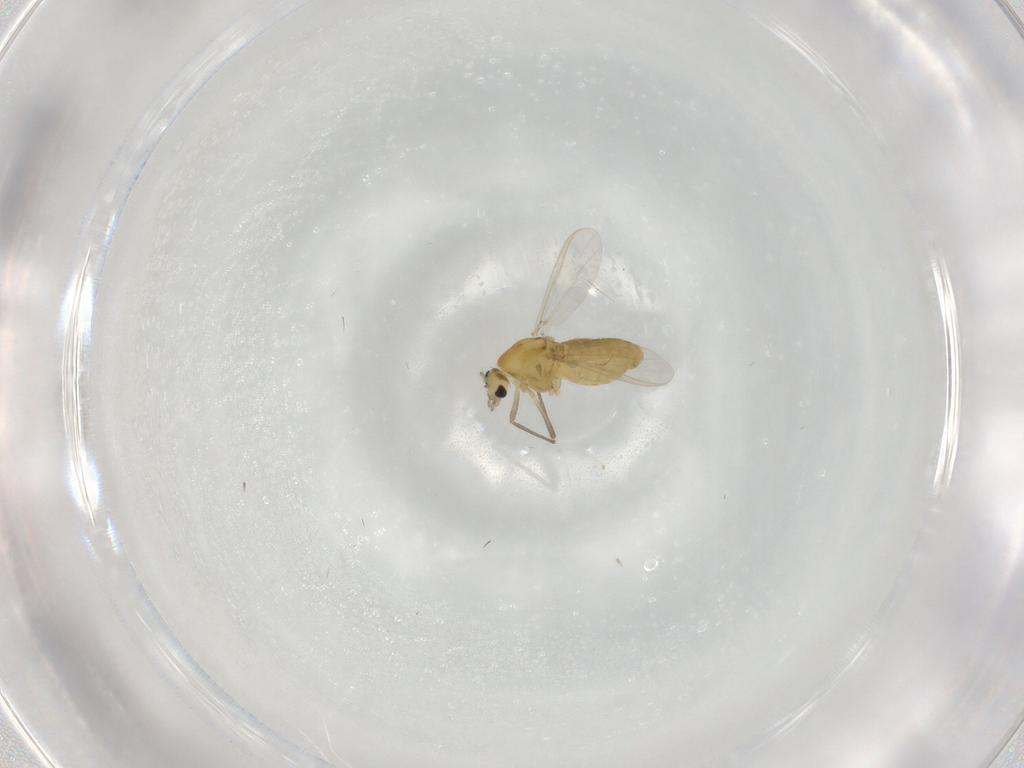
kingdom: Animalia
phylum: Arthropoda
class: Insecta
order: Diptera
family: Chironomidae
